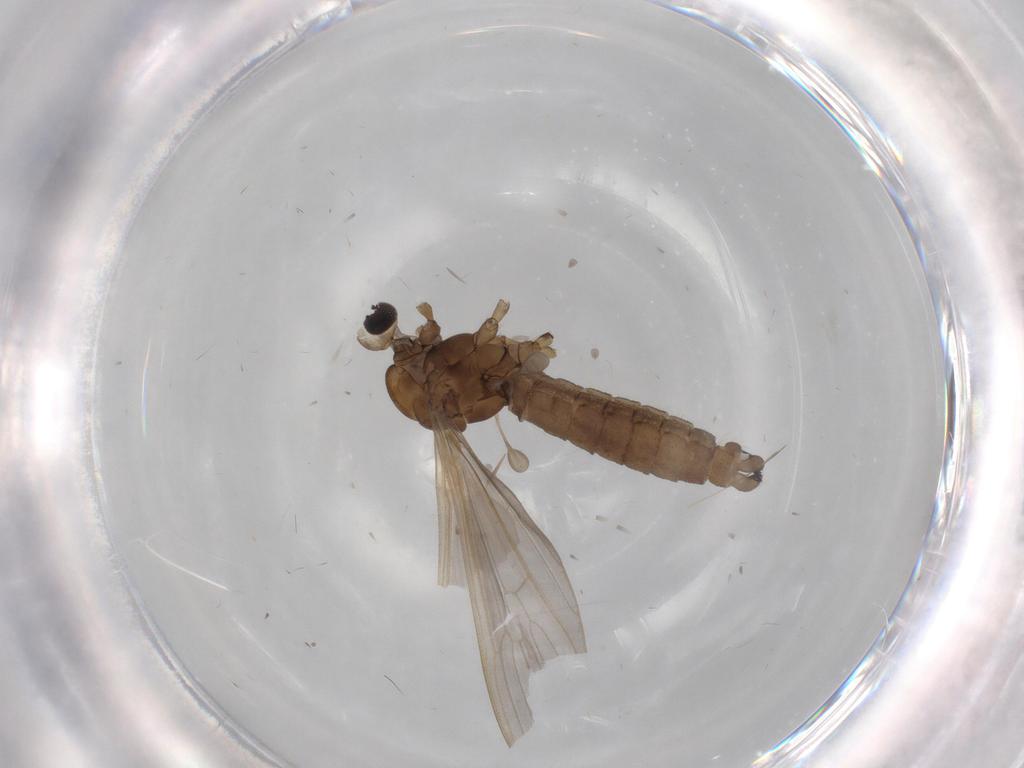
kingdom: Animalia
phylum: Arthropoda
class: Insecta
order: Diptera
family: Limoniidae
